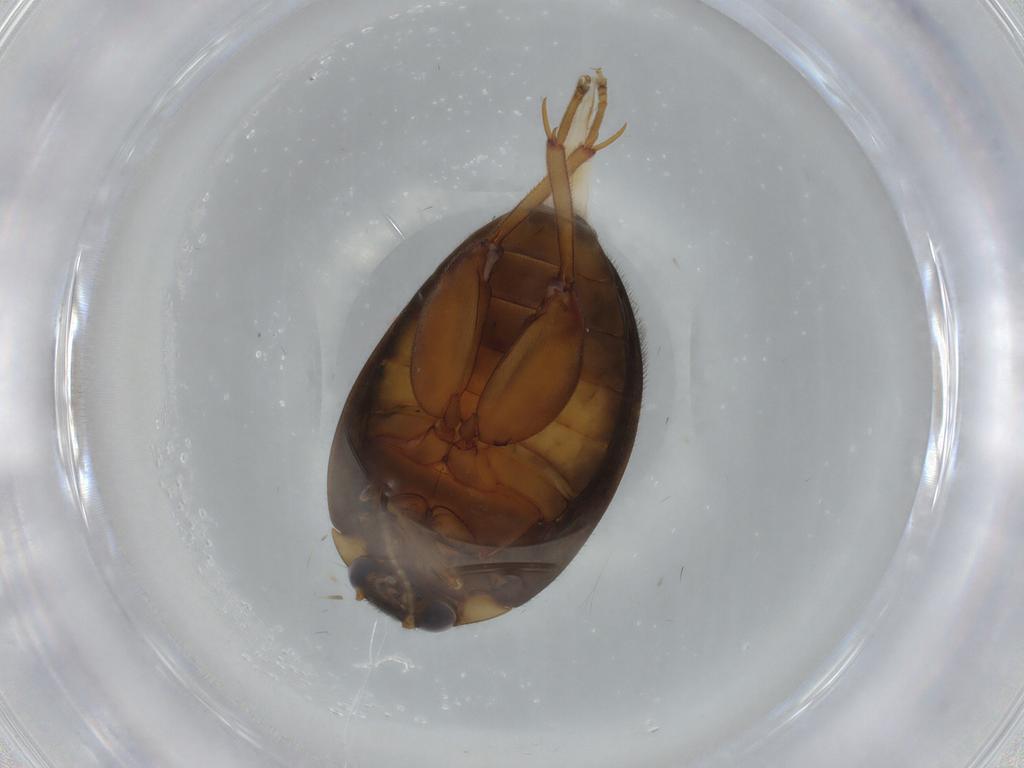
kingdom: Animalia
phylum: Arthropoda
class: Insecta
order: Coleoptera
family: Scirtidae
